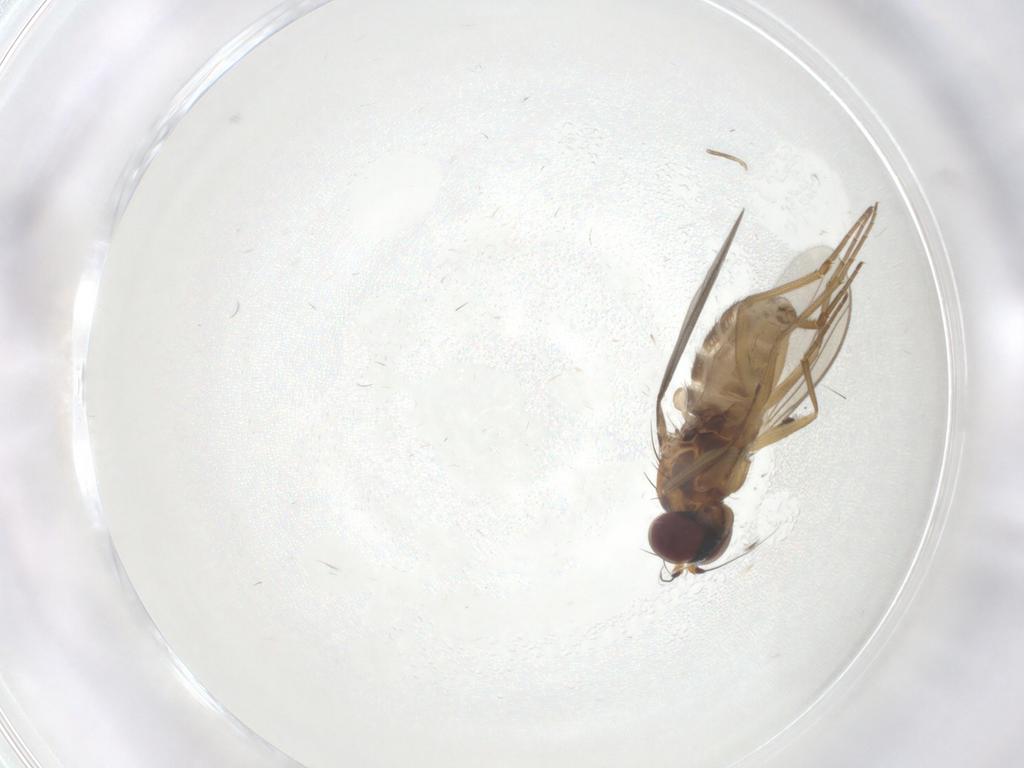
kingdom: Animalia
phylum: Arthropoda
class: Insecta
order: Diptera
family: Dolichopodidae
